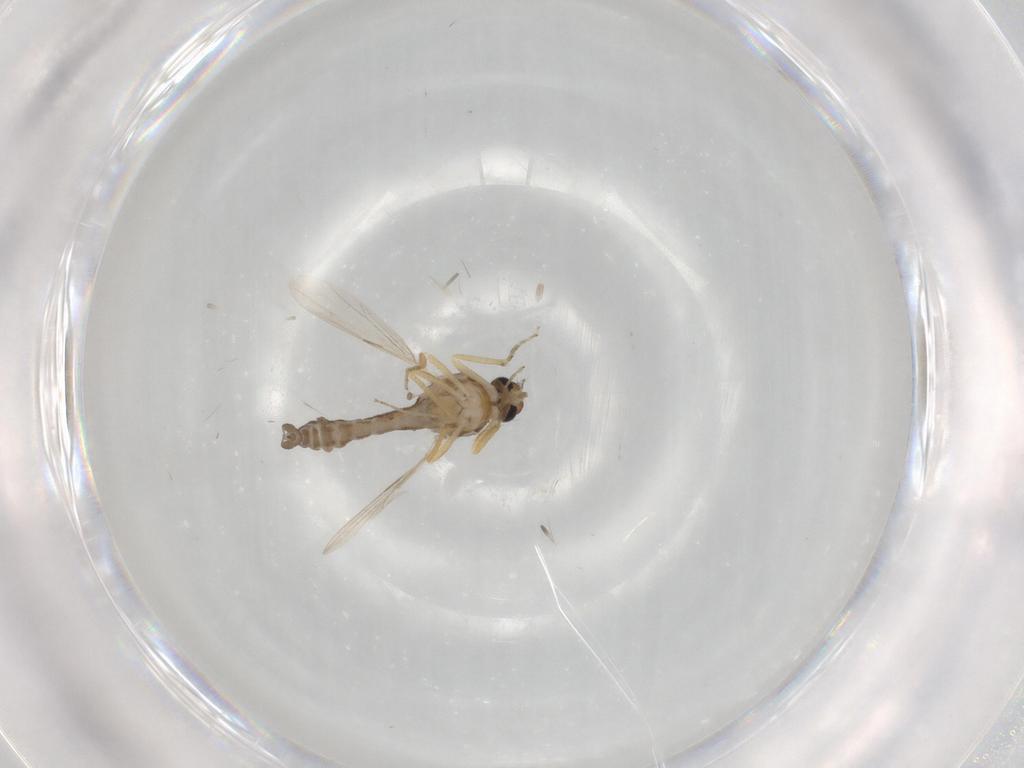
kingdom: Animalia
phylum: Arthropoda
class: Insecta
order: Diptera
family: Ceratopogonidae
